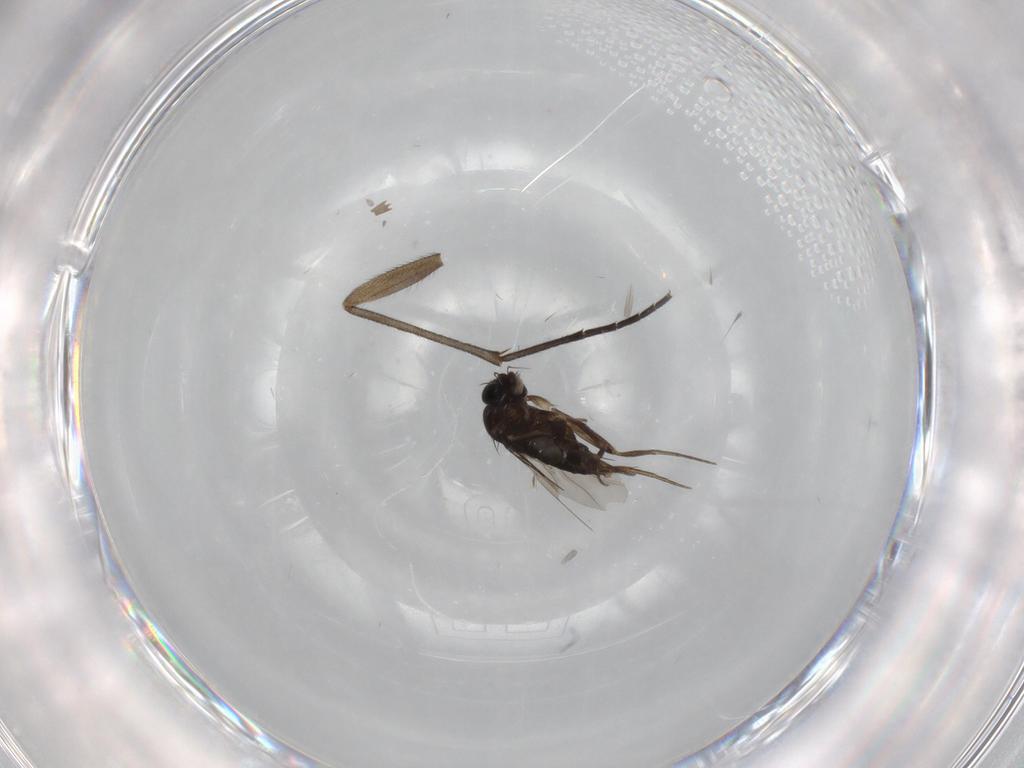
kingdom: Animalia
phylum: Arthropoda
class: Insecta
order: Diptera
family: Phoridae
